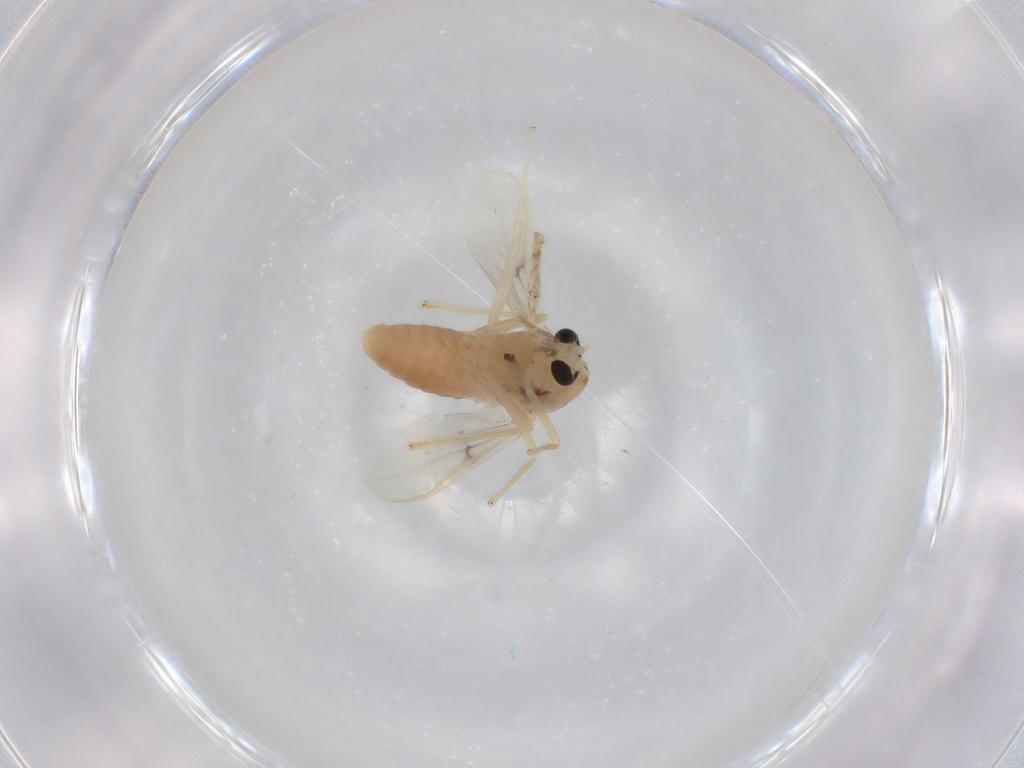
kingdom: Animalia
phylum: Arthropoda
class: Insecta
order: Diptera
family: Chironomidae
